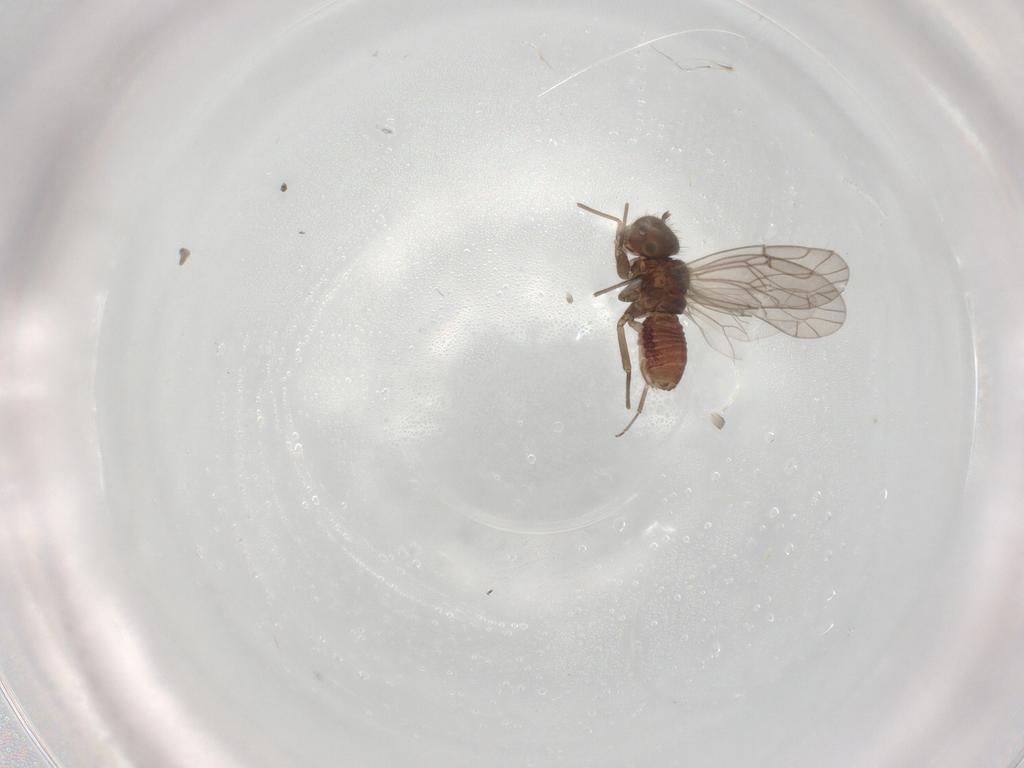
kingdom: Animalia
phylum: Arthropoda
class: Insecta
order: Psocodea
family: Ectopsocidae
